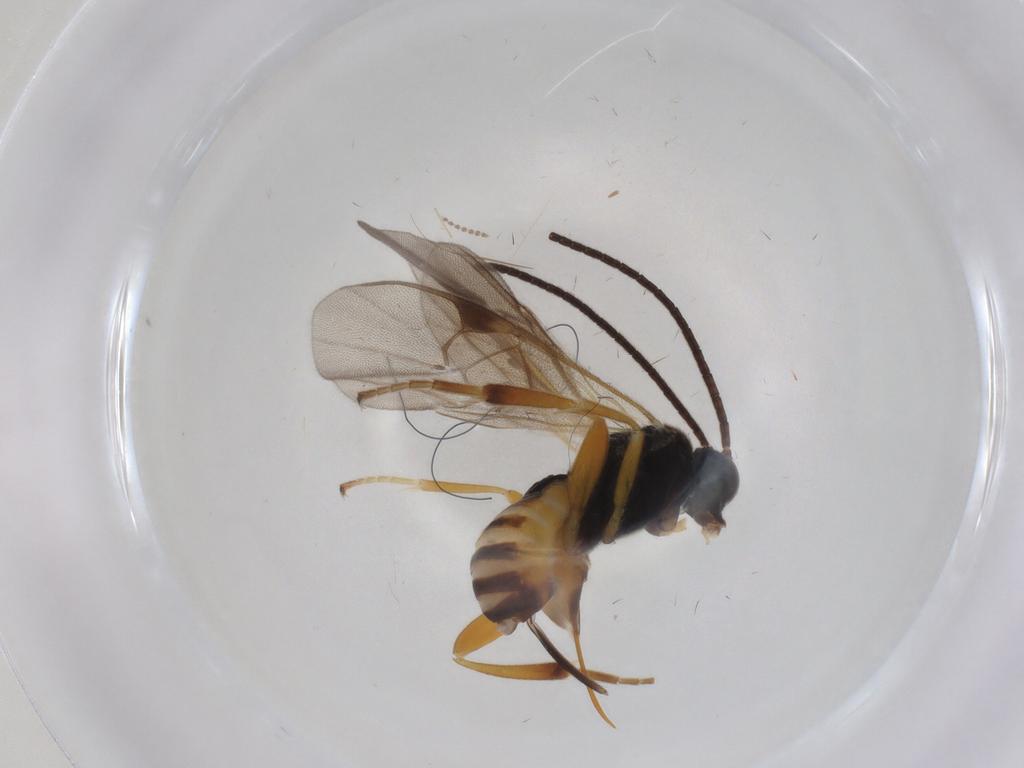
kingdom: Animalia
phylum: Arthropoda
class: Insecta
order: Hymenoptera
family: Braconidae
